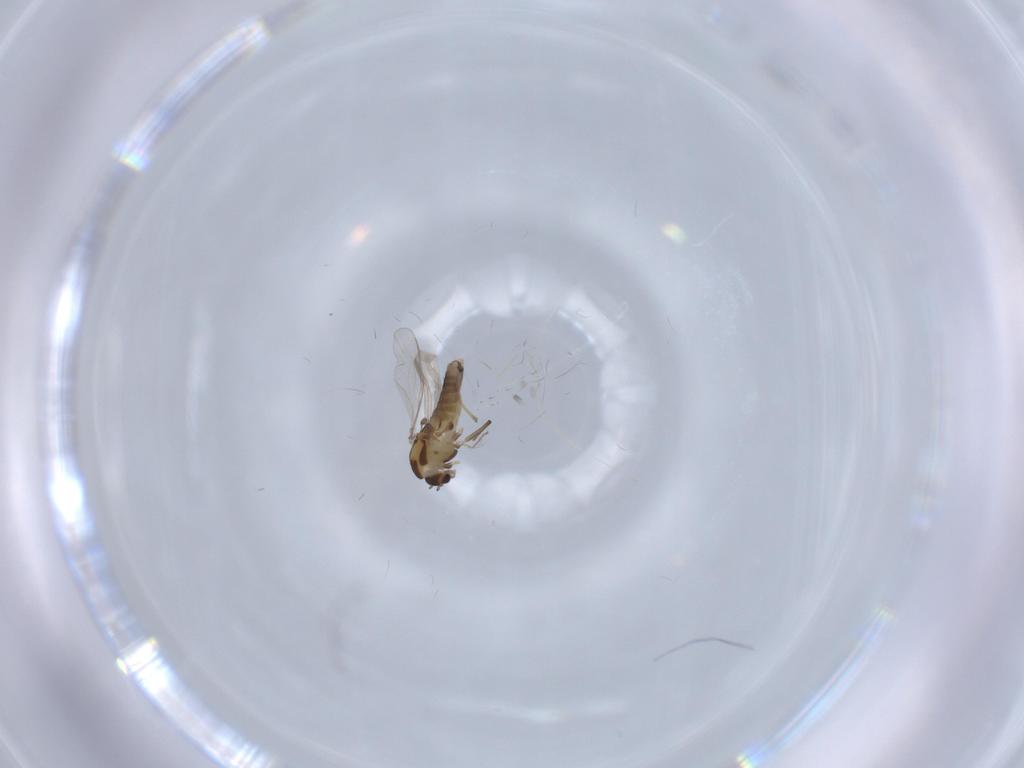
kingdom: Animalia
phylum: Arthropoda
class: Insecta
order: Diptera
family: Chironomidae
